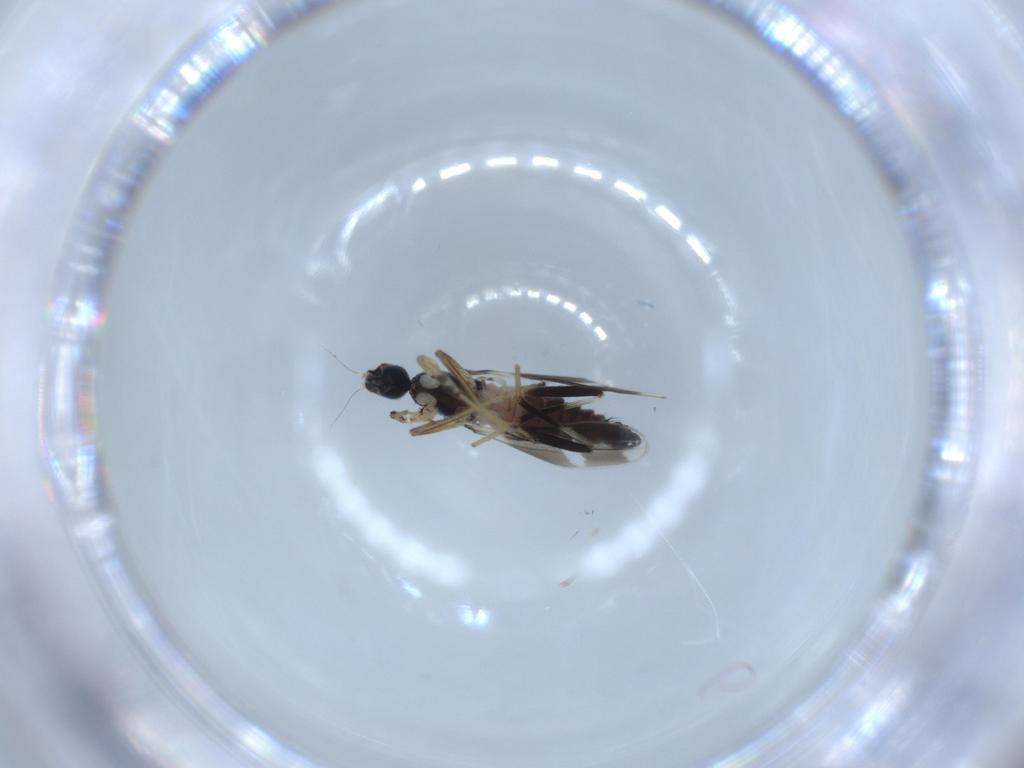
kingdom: Animalia
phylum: Arthropoda
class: Insecta
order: Diptera
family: Hybotidae
